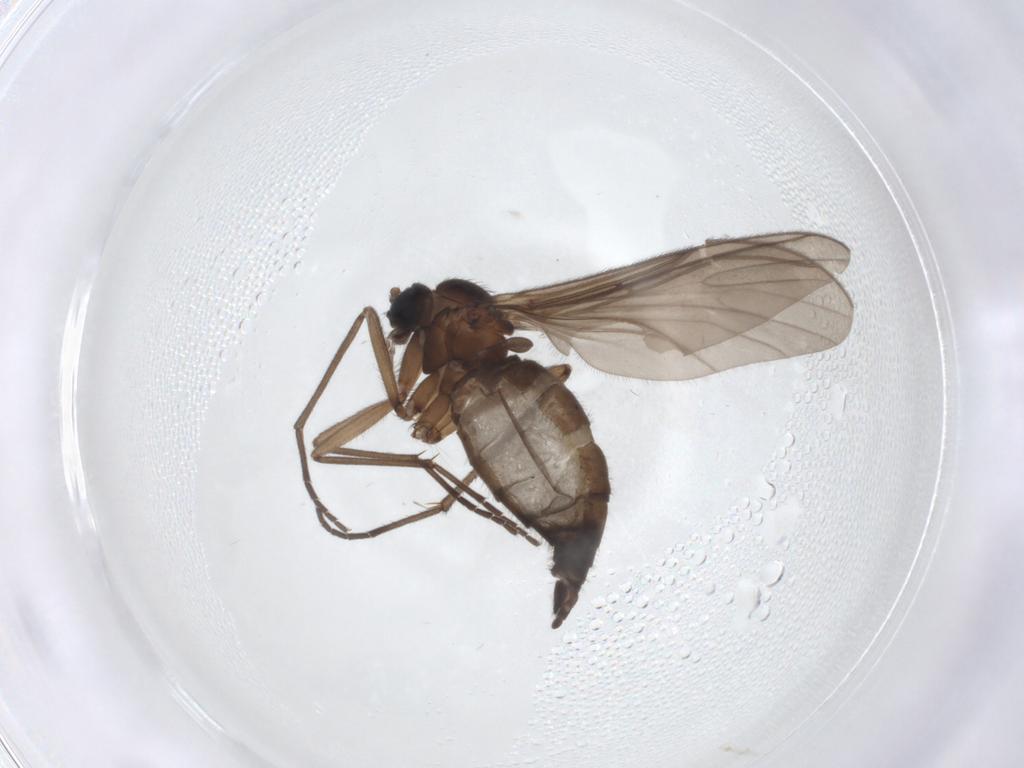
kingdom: Animalia
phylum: Arthropoda
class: Insecta
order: Diptera
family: Sciaridae
